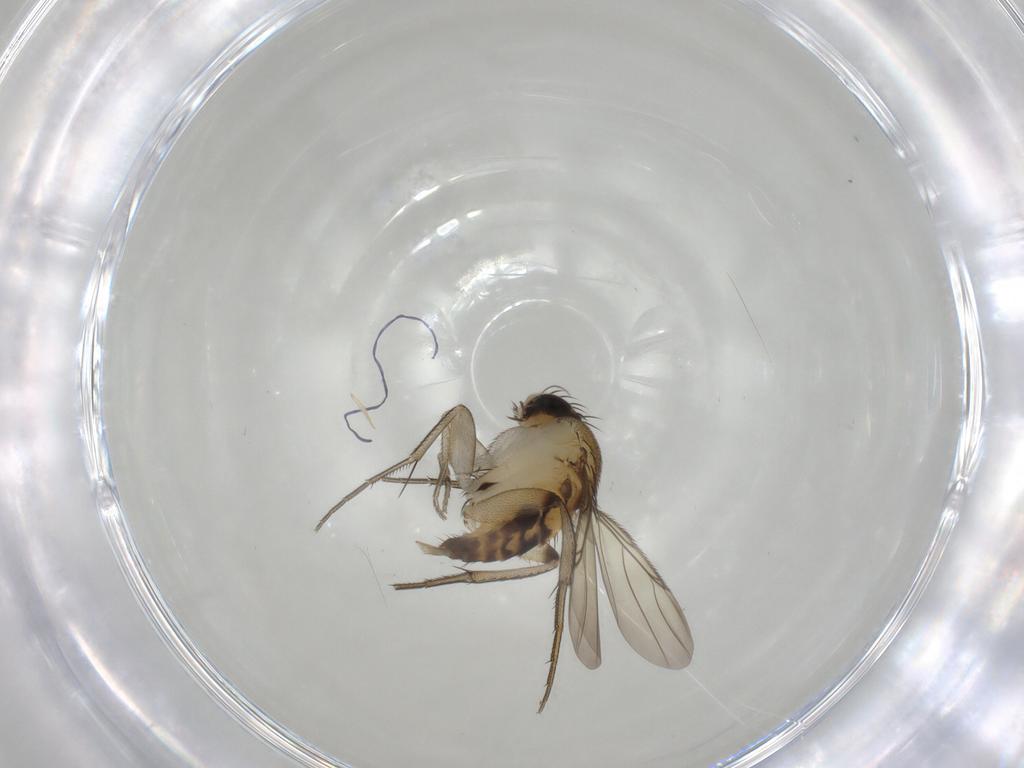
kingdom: Animalia
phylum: Arthropoda
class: Insecta
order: Diptera
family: Phoridae
